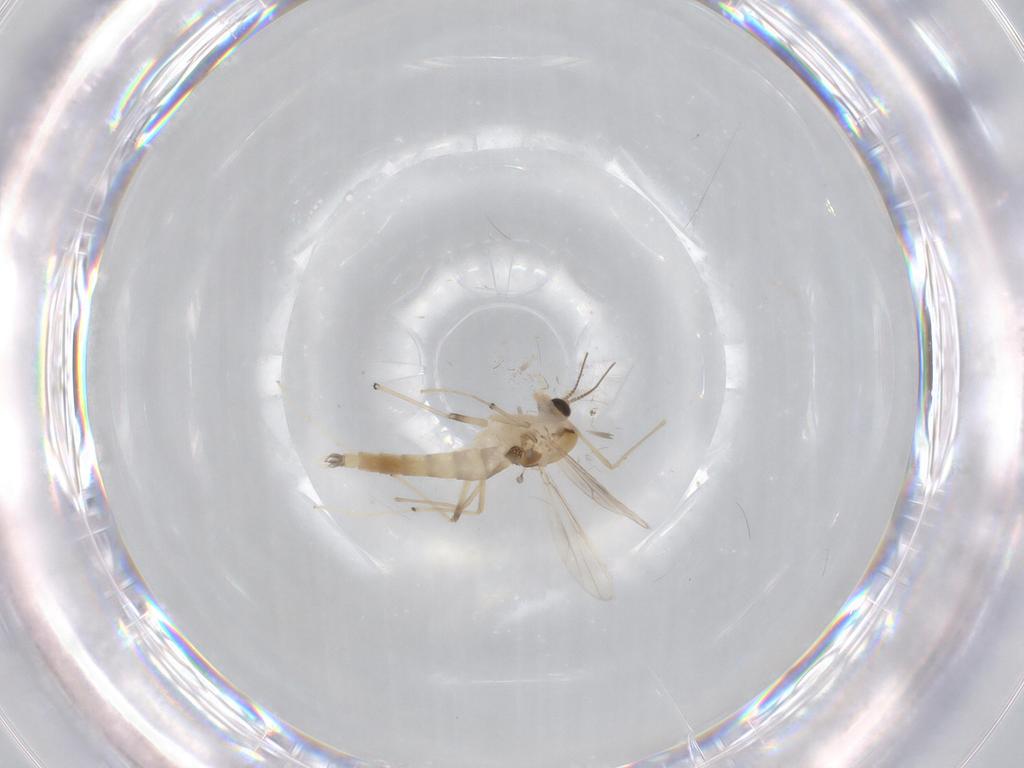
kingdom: Animalia
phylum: Arthropoda
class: Insecta
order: Diptera
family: Chironomidae
